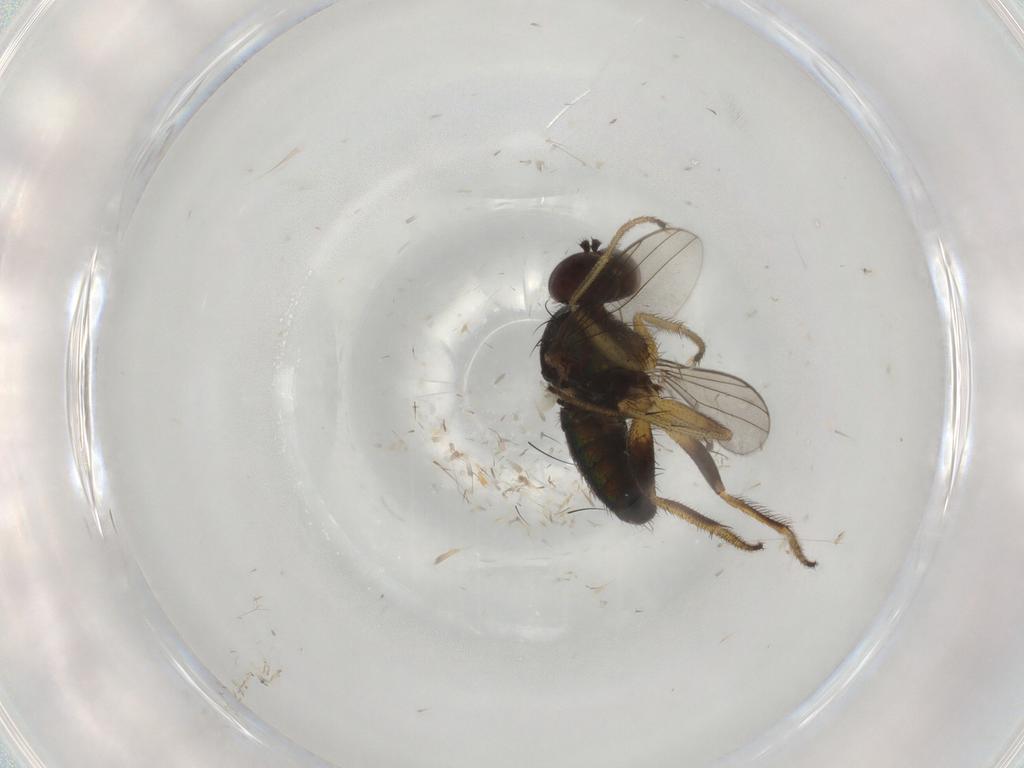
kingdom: Animalia
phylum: Arthropoda
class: Insecta
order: Diptera
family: Dolichopodidae
